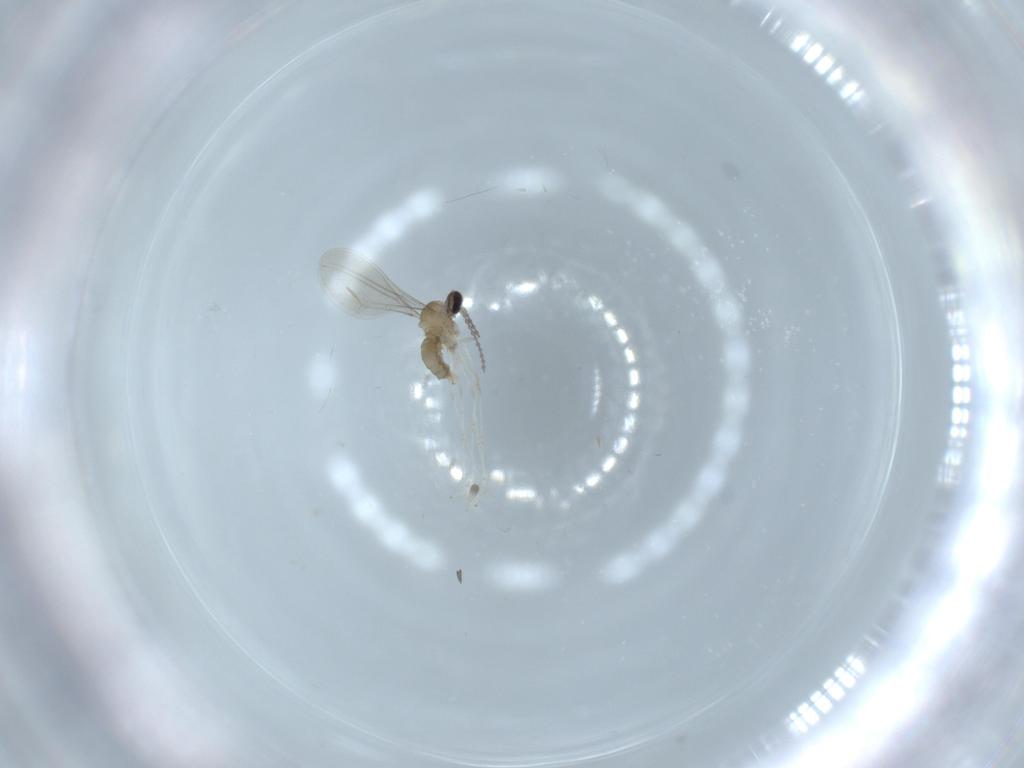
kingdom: Animalia
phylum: Arthropoda
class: Insecta
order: Diptera
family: Cecidomyiidae
